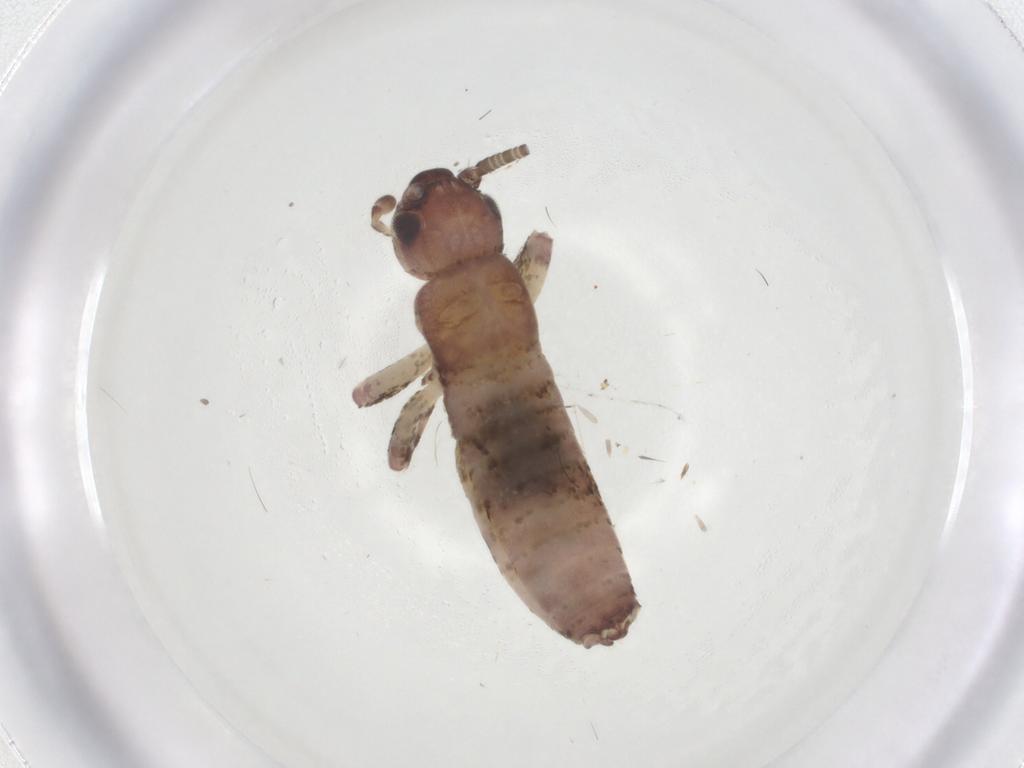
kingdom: Animalia
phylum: Arthropoda
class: Insecta
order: Orthoptera
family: Gryllidae
